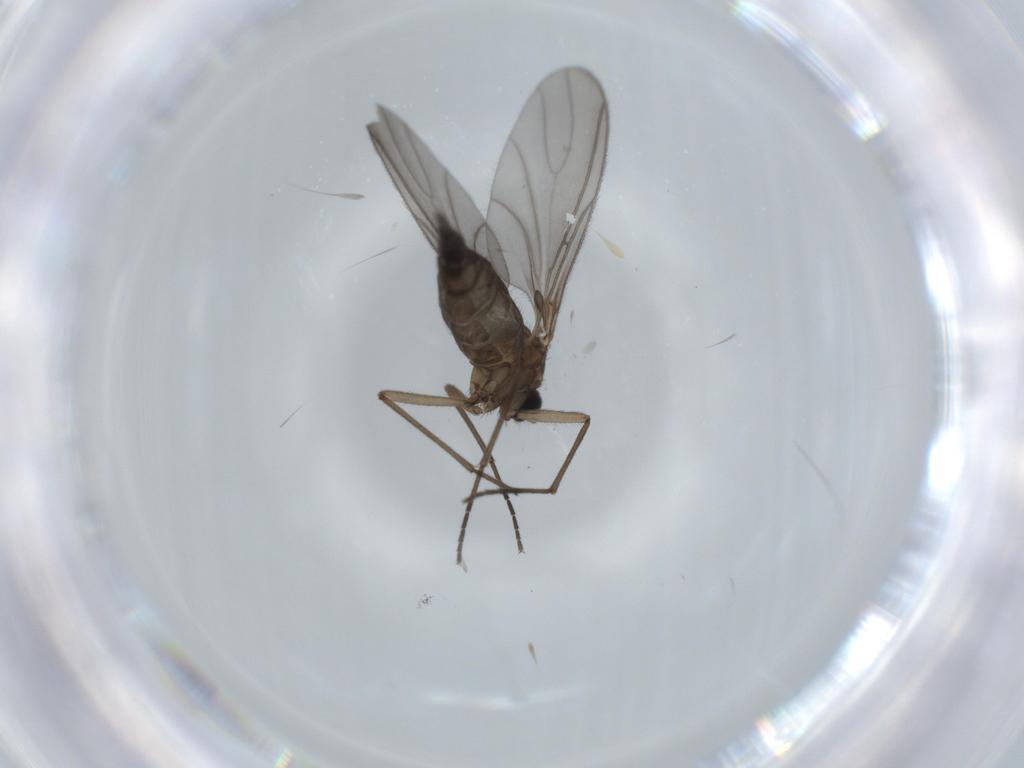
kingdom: Animalia
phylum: Arthropoda
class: Insecta
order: Diptera
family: Sciaridae
